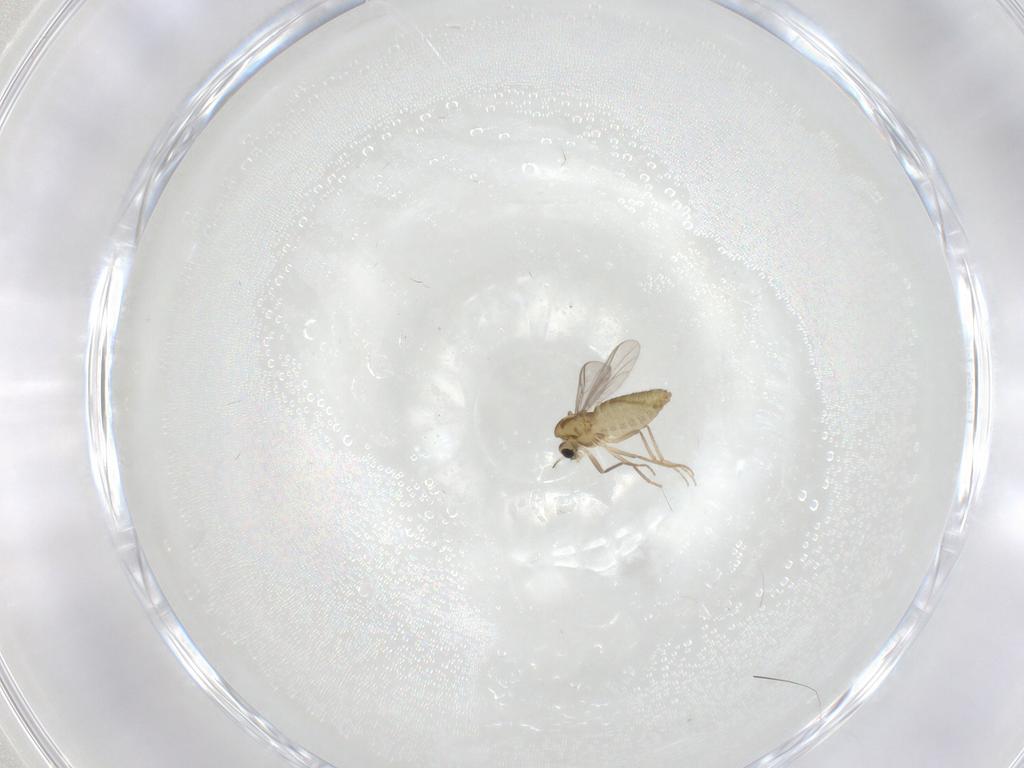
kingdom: Animalia
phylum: Arthropoda
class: Insecta
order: Diptera
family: Chironomidae
